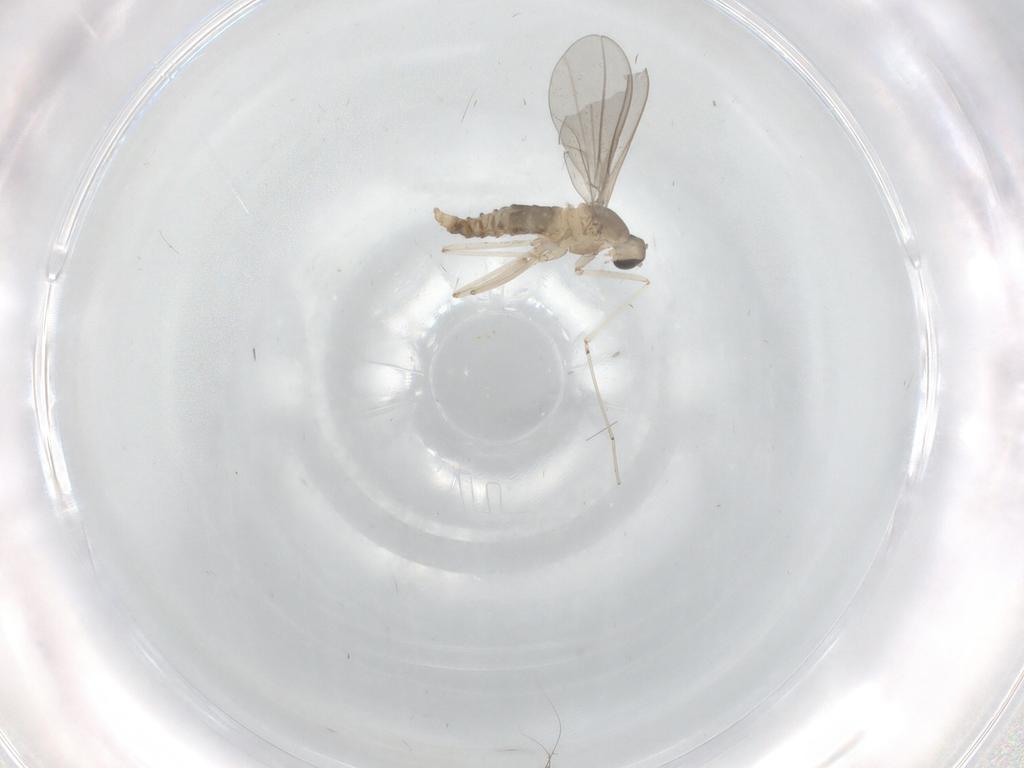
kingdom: Animalia
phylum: Arthropoda
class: Insecta
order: Diptera
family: Cecidomyiidae
